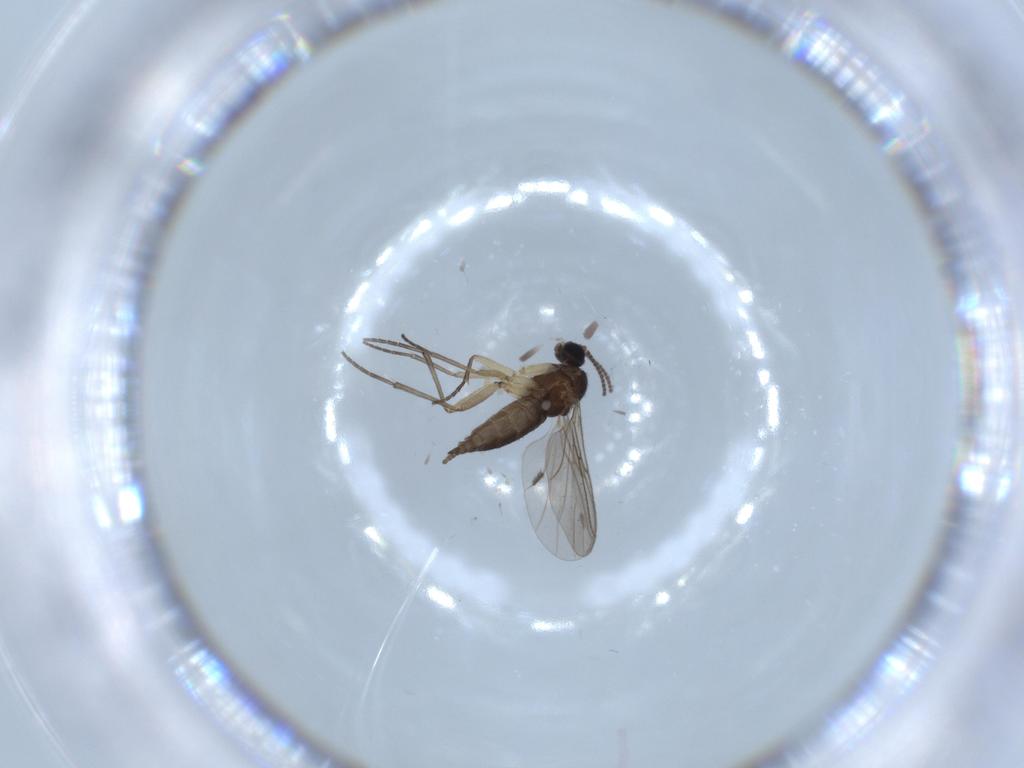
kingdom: Animalia
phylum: Arthropoda
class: Insecta
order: Diptera
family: Sciaridae
